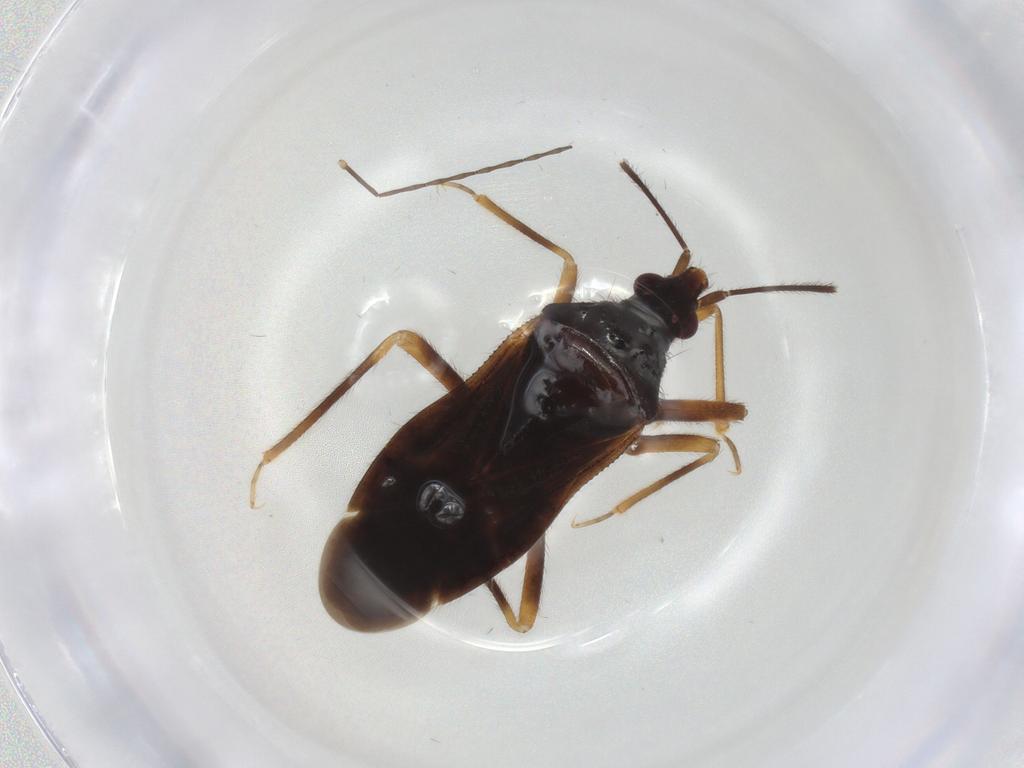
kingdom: Animalia
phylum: Arthropoda
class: Insecta
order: Hemiptera
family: Anthocoridae
